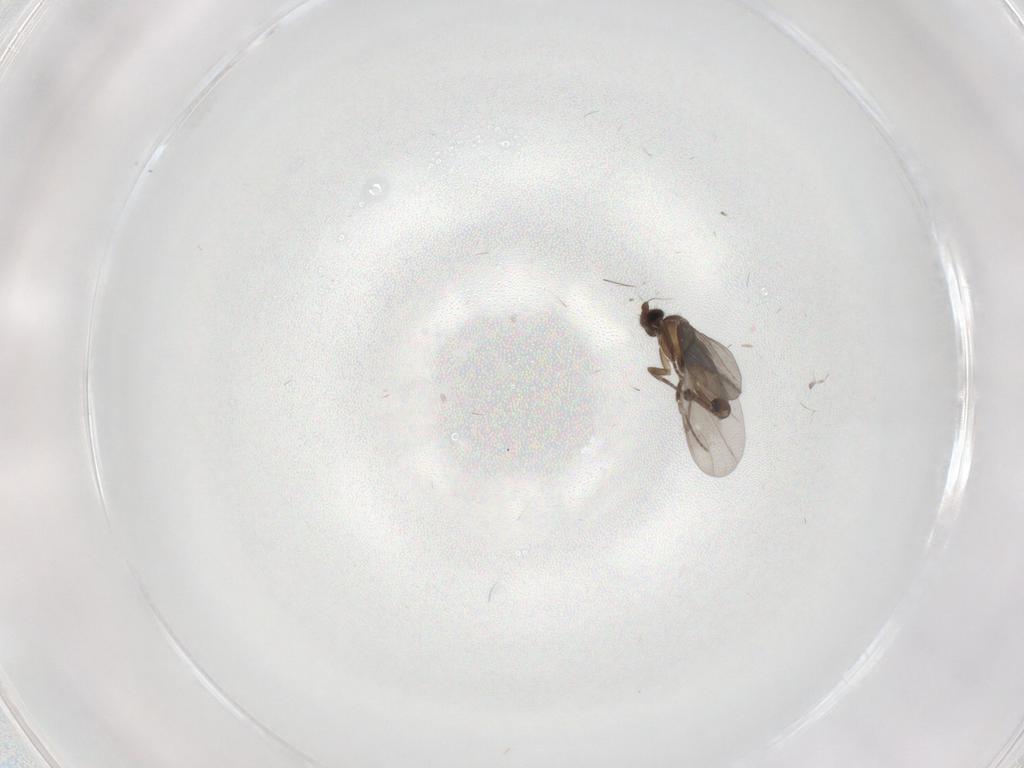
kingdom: Animalia
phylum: Arthropoda
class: Insecta
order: Diptera
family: Phoridae
